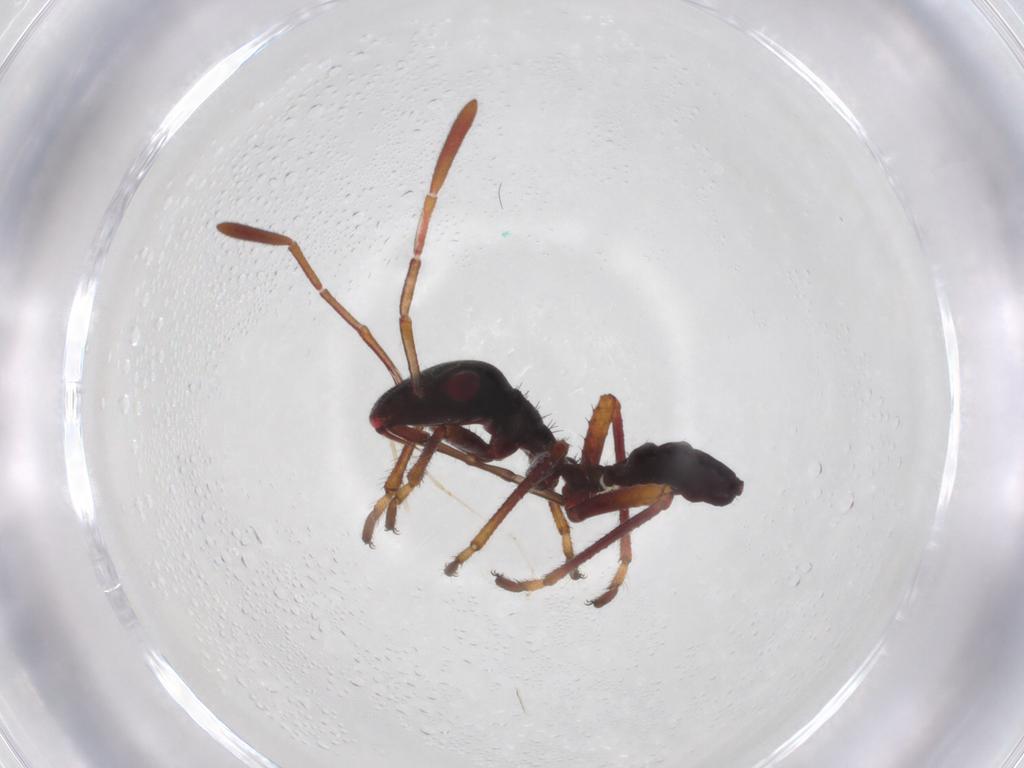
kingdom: Animalia
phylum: Arthropoda
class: Insecta
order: Hemiptera
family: Alydidae
